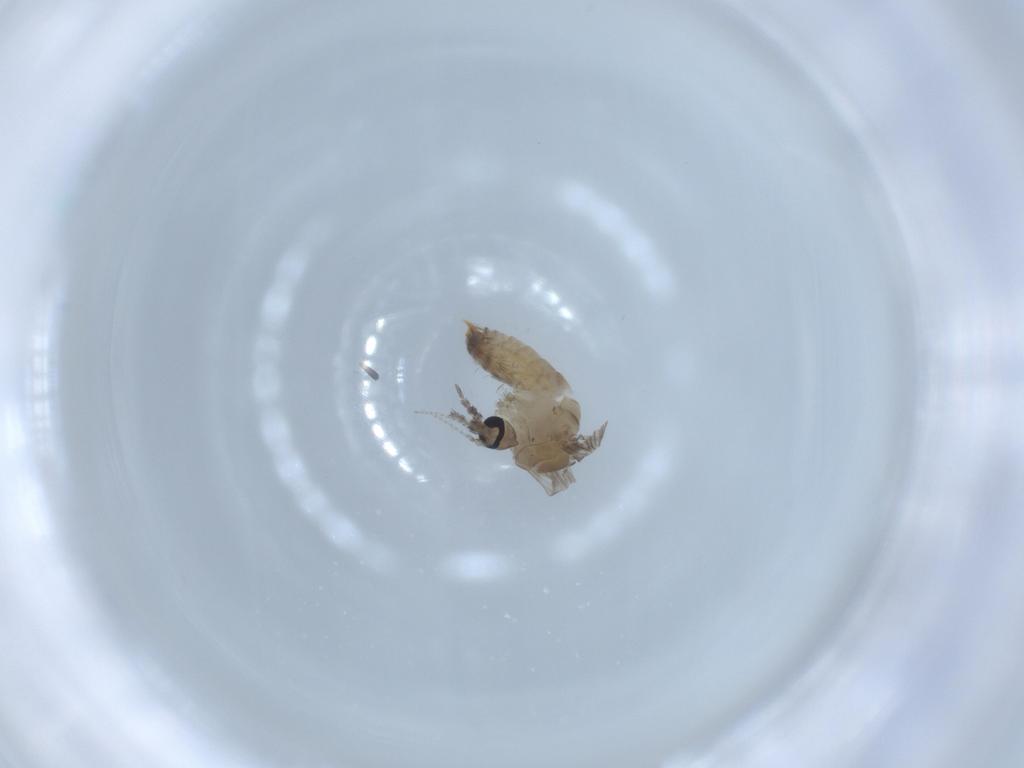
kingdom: Animalia
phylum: Arthropoda
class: Insecta
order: Diptera
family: Psychodidae
